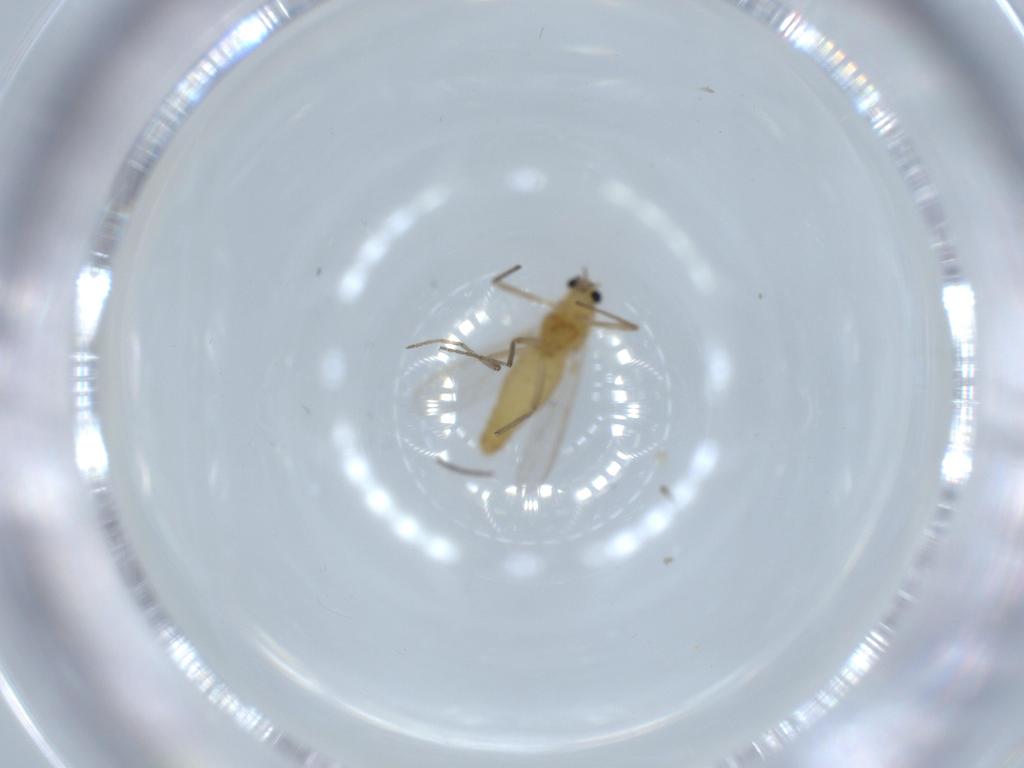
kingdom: Animalia
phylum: Arthropoda
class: Insecta
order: Diptera
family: Chironomidae
